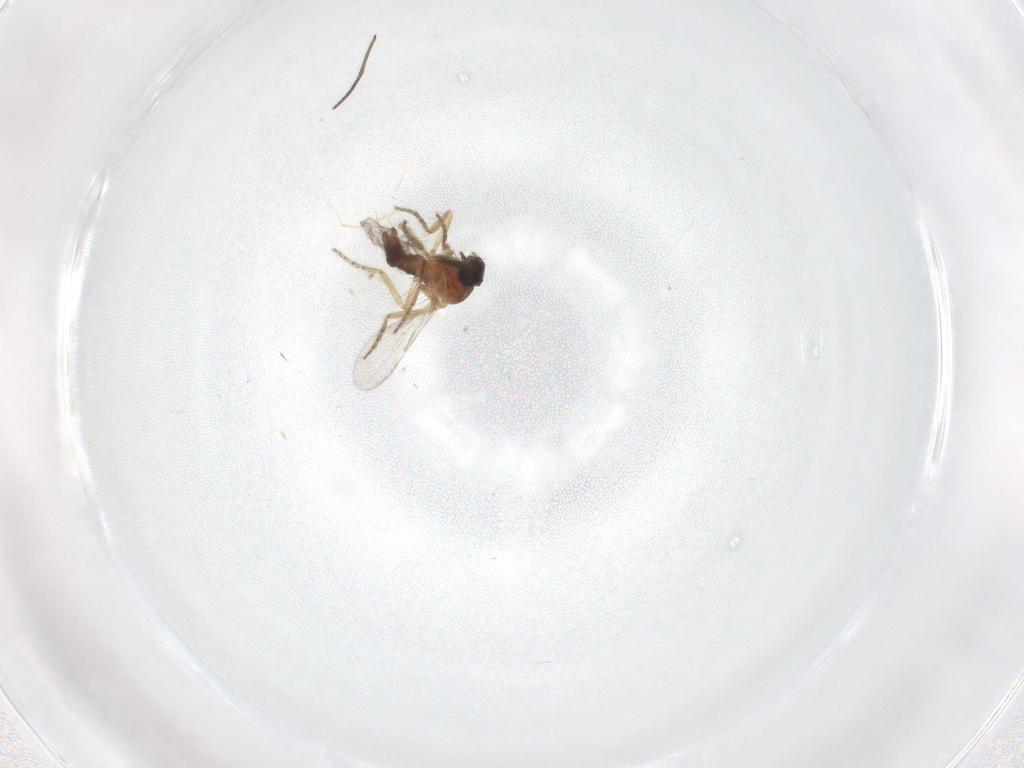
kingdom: Animalia
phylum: Arthropoda
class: Insecta
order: Diptera
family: Ceratopogonidae
